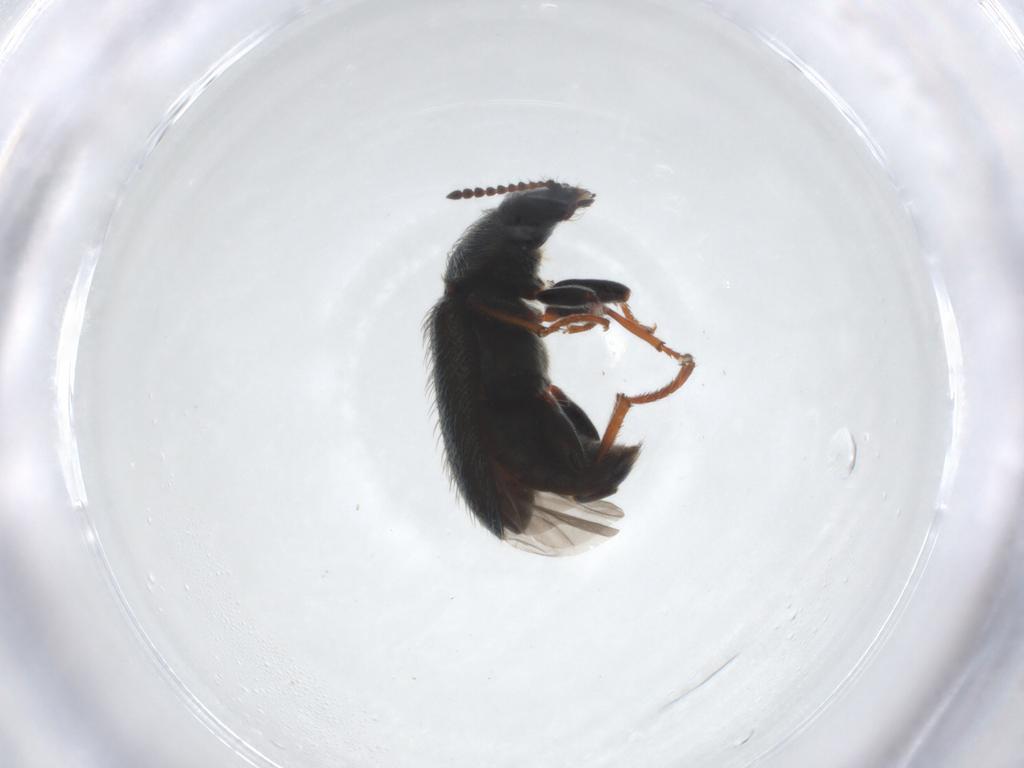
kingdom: Animalia
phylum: Arthropoda
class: Insecta
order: Coleoptera
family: Melyridae
